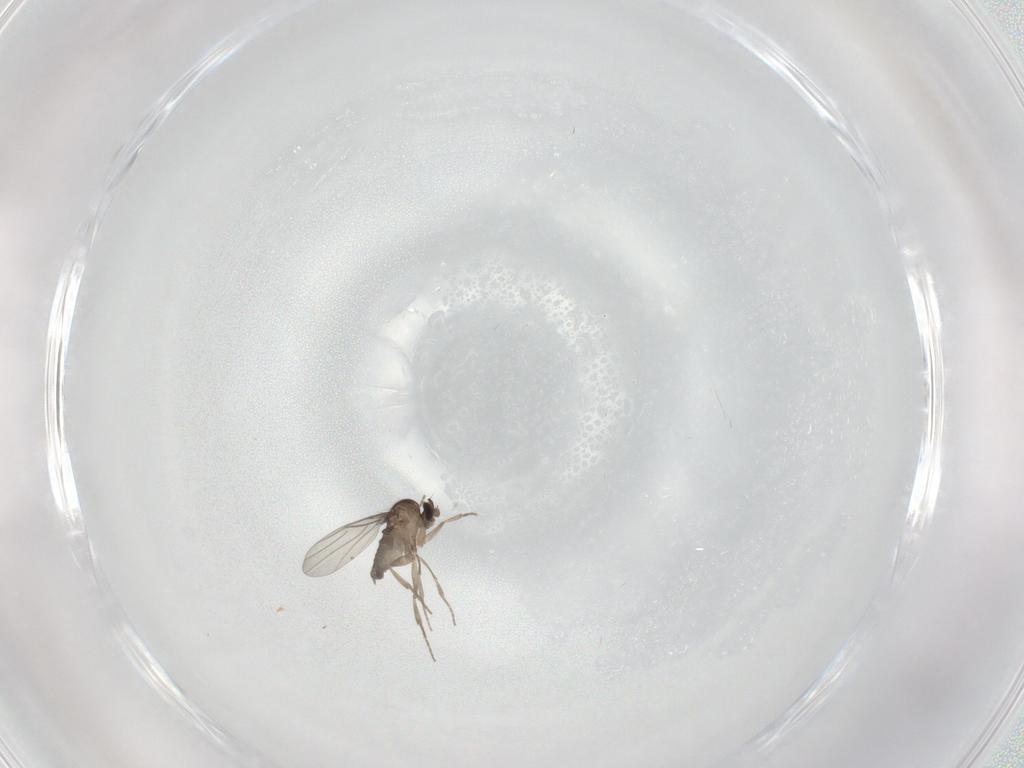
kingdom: Animalia
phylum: Arthropoda
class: Insecta
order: Diptera
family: Phoridae
